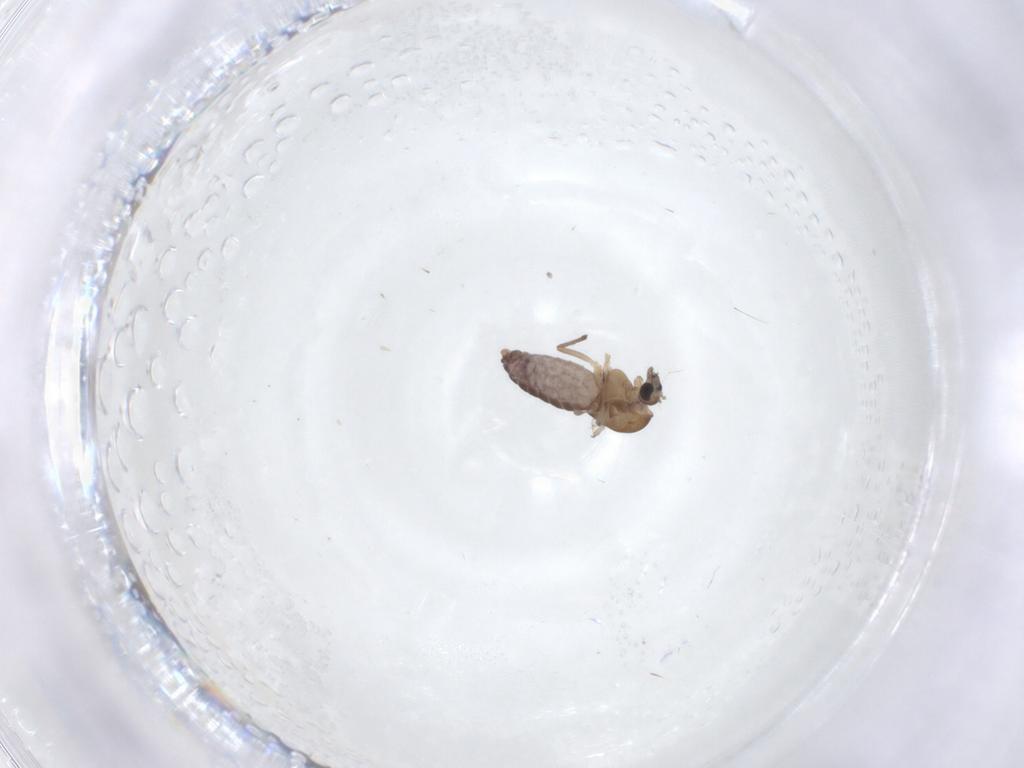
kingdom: Animalia
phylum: Arthropoda
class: Insecta
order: Diptera
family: Chironomidae
